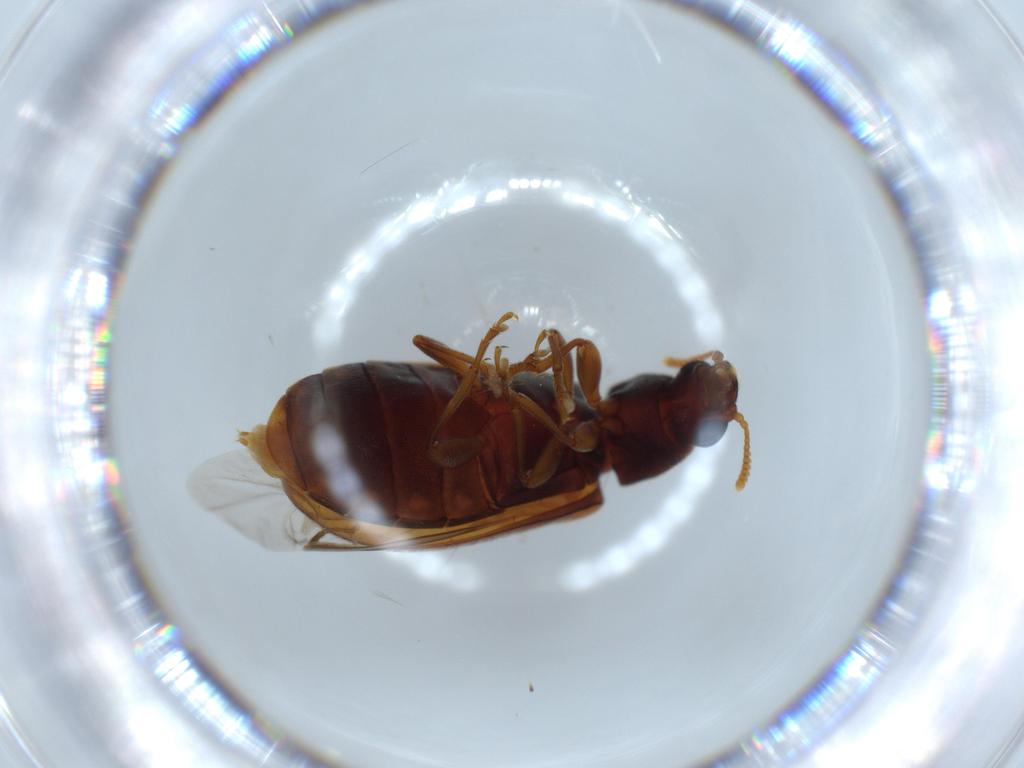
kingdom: Animalia
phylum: Arthropoda
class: Insecta
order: Coleoptera
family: Mycteridae
